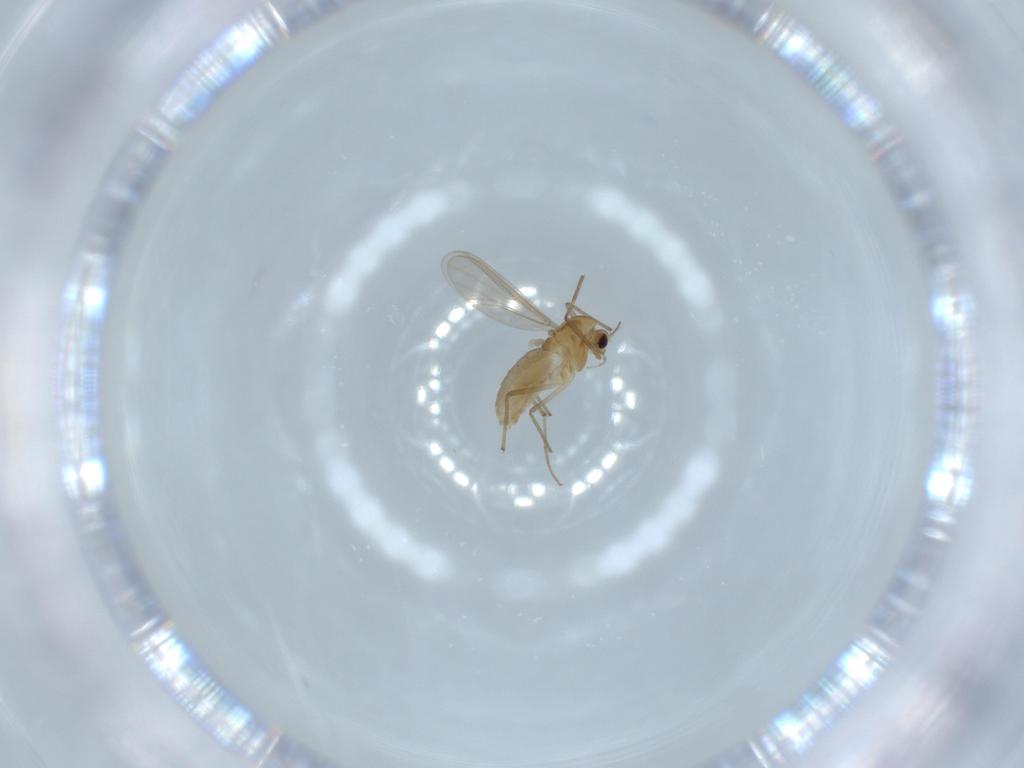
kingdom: Animalia
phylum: Arthropoda
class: Insecta
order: Diptera
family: Chironomidae
